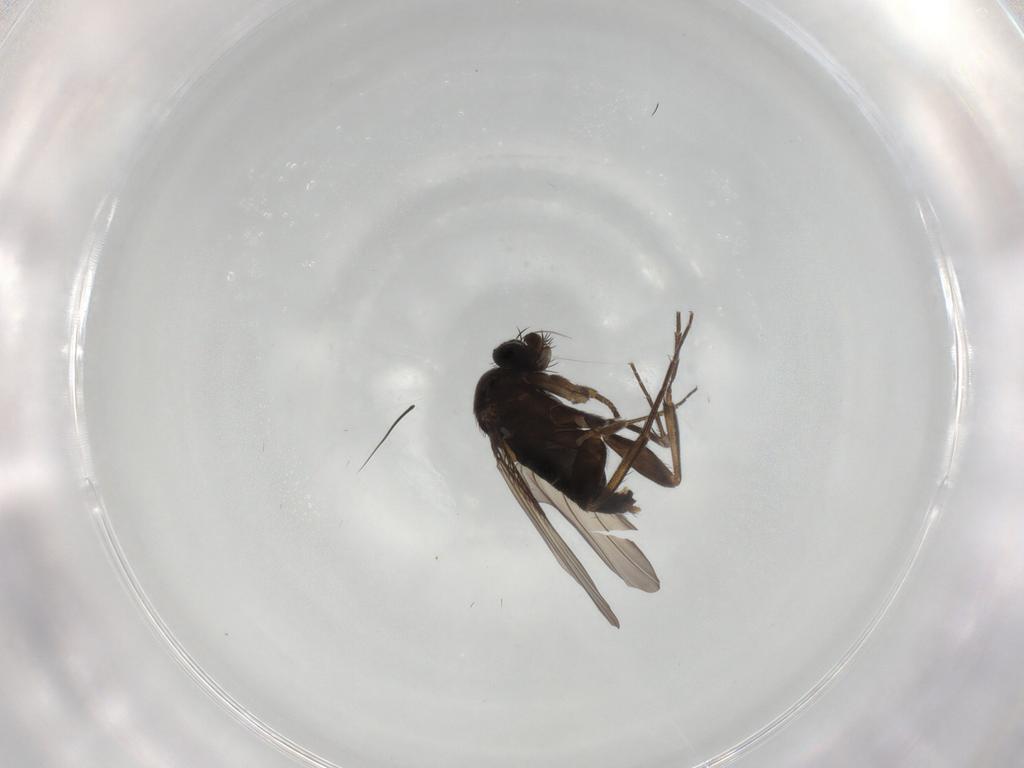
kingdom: Animalia
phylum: Arthropoda
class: Insecta
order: Diptera
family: Phoridae
